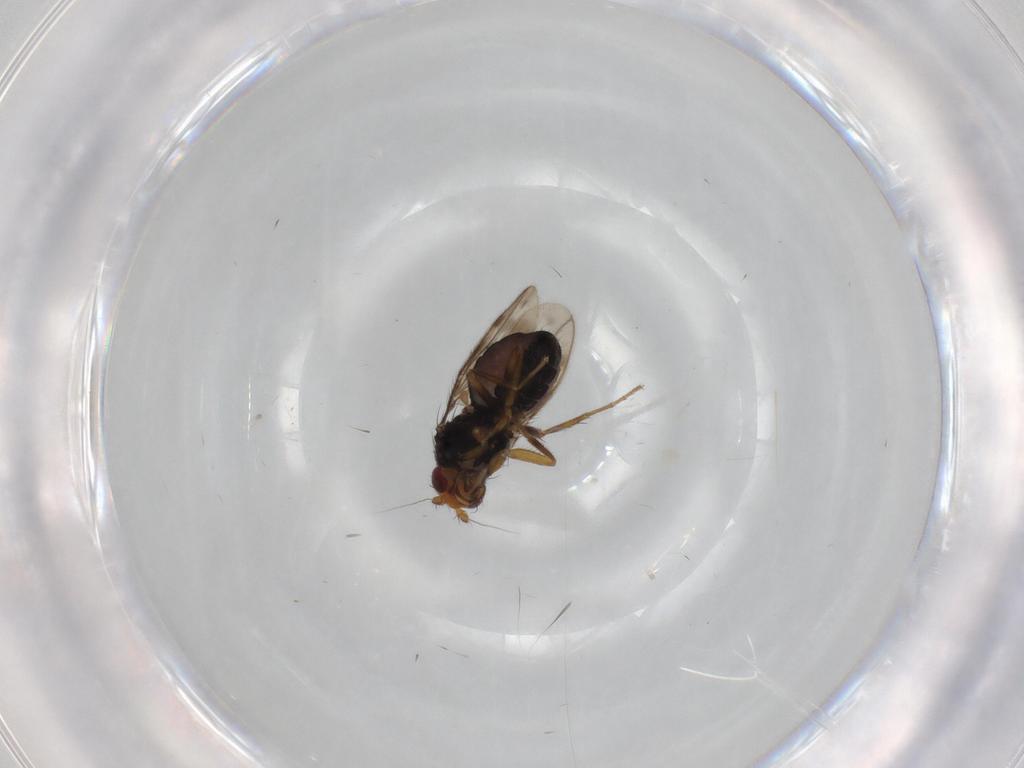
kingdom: Animalia
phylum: Arthropoda
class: Insecta
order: Diptera
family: Sphaeroceridae
